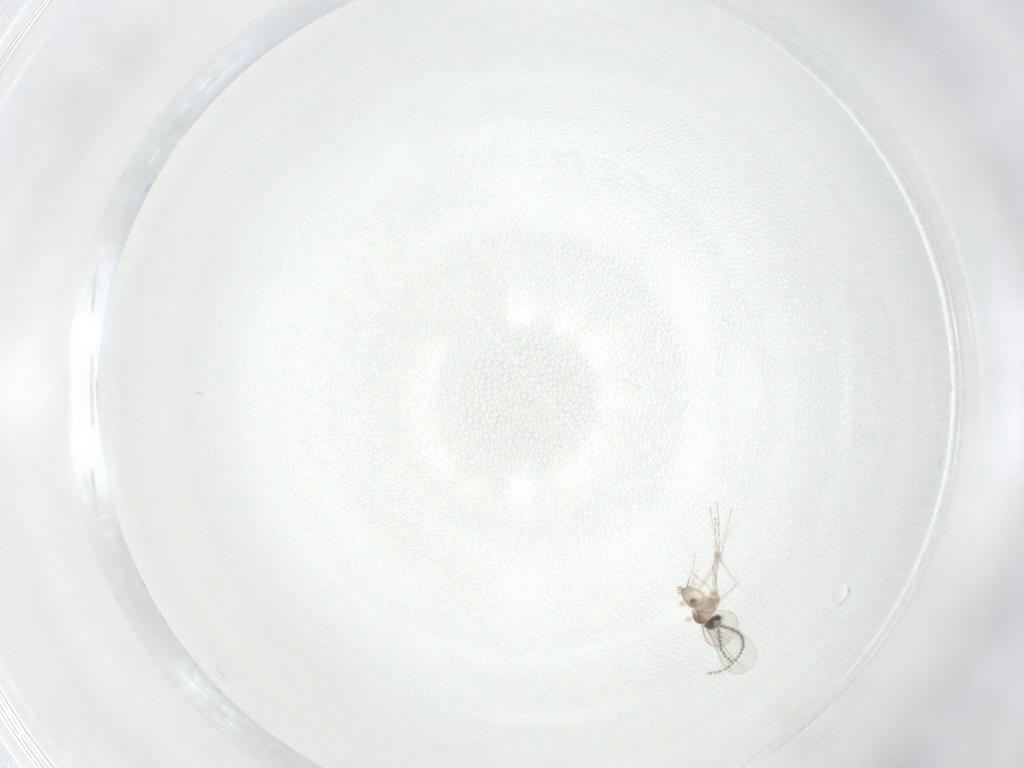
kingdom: Animalia
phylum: Arthropoda
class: Insecta
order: Diptera
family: Cecidomyiidae
